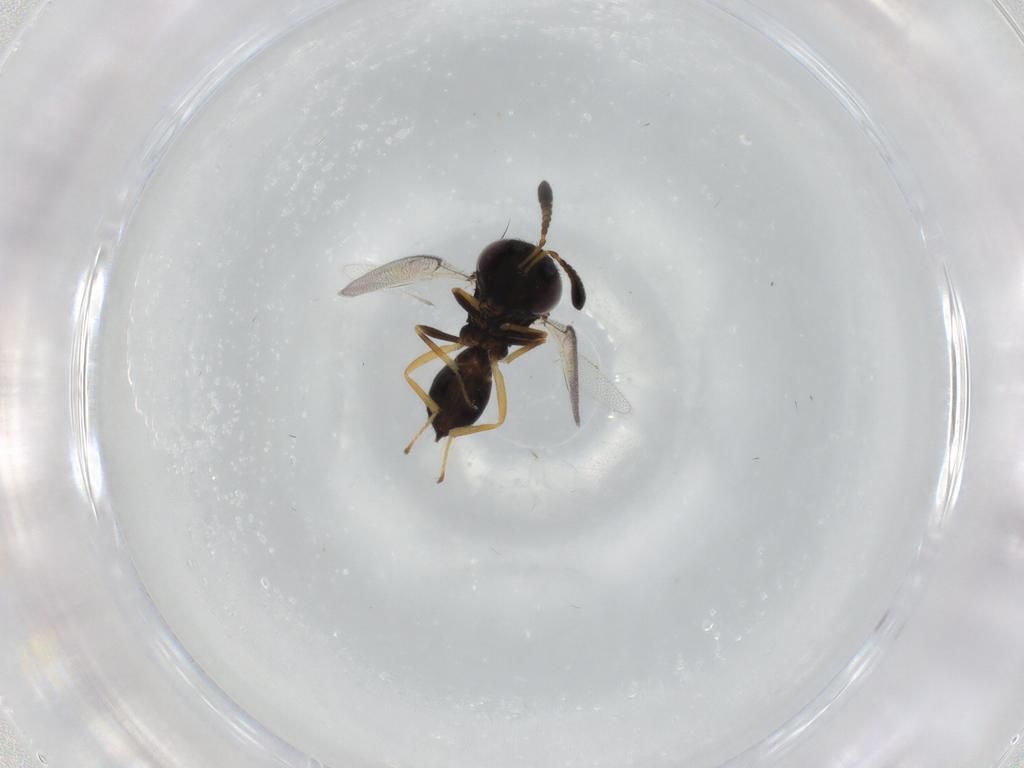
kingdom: Animalia
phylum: Arthropoda
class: Insecta
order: Hymenoptera
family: Pteromalidae
